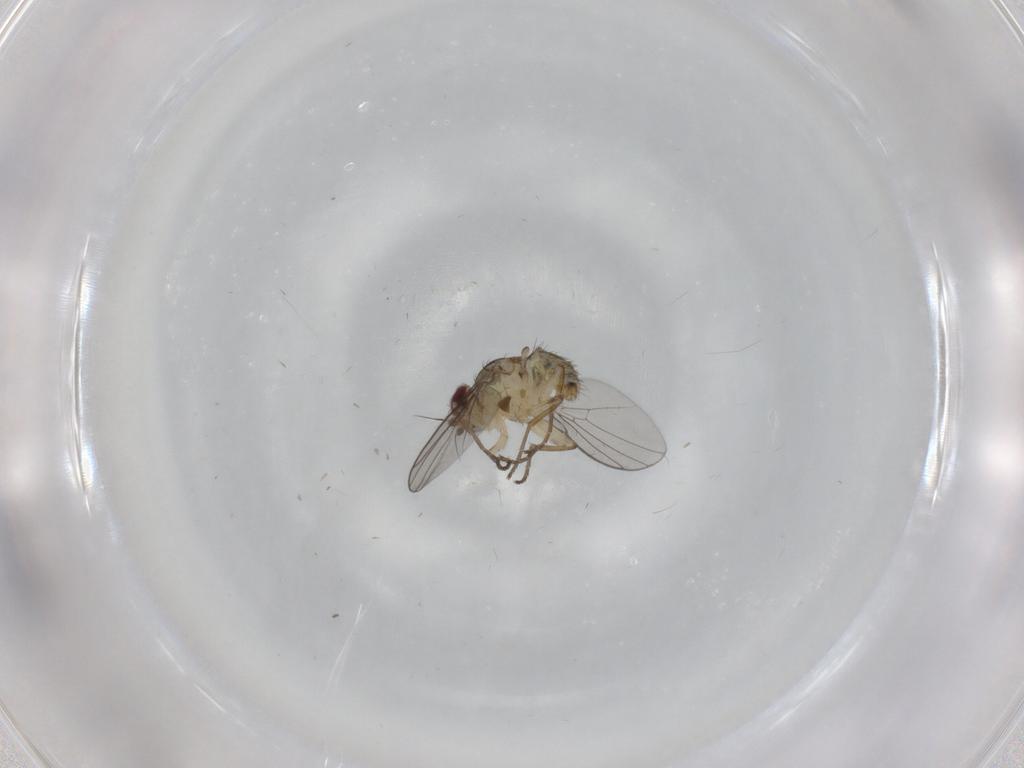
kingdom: Animalia
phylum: Arthropoda
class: Insecta
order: Diptera
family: Agromyzidae
